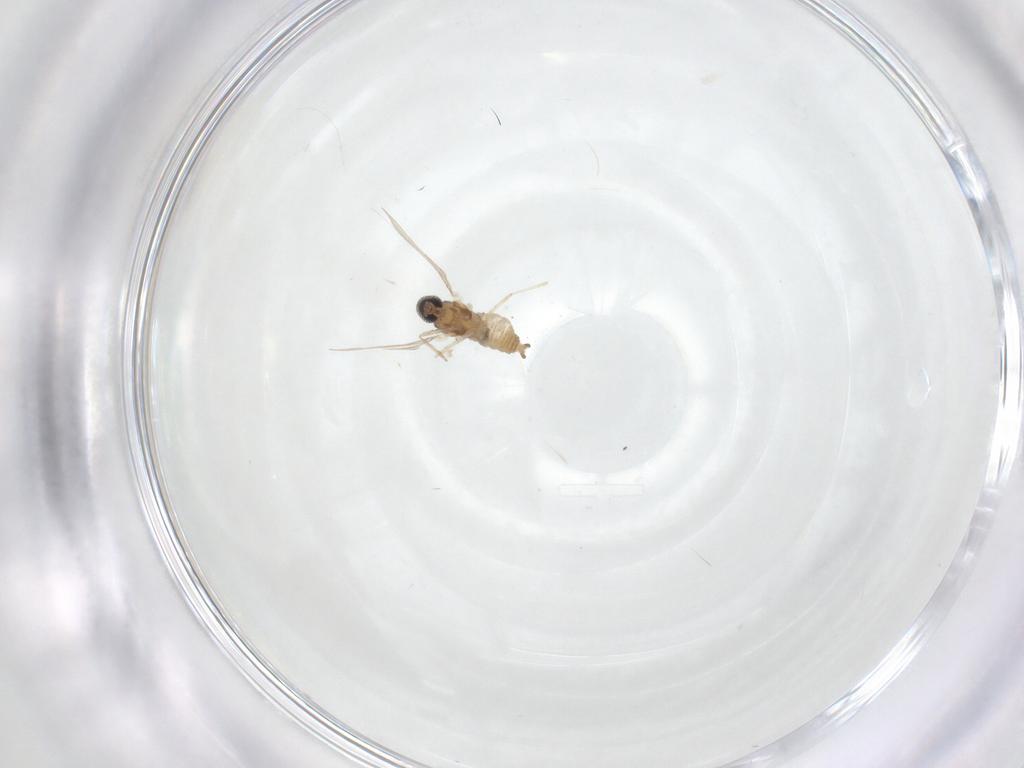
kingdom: Animalia
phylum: Arthropoda
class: Insecta
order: Diptera
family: Cecidomyiidae
